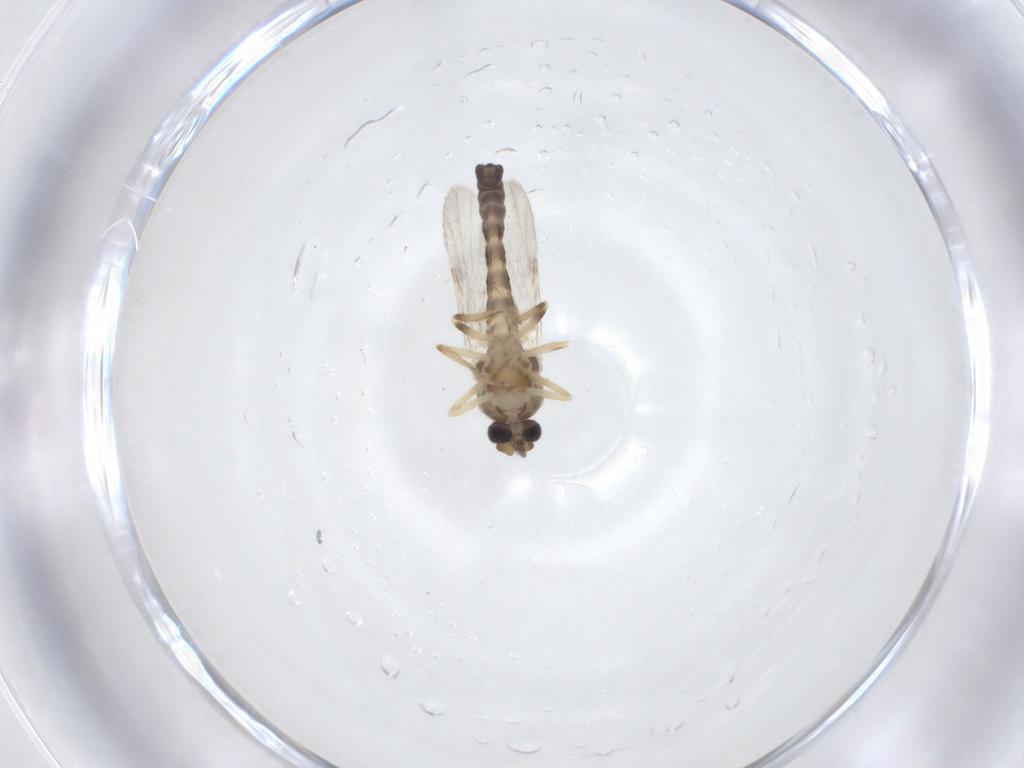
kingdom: Animalia
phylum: Arthropoda
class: Insecta
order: Diptera
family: Ceratopogonidae
